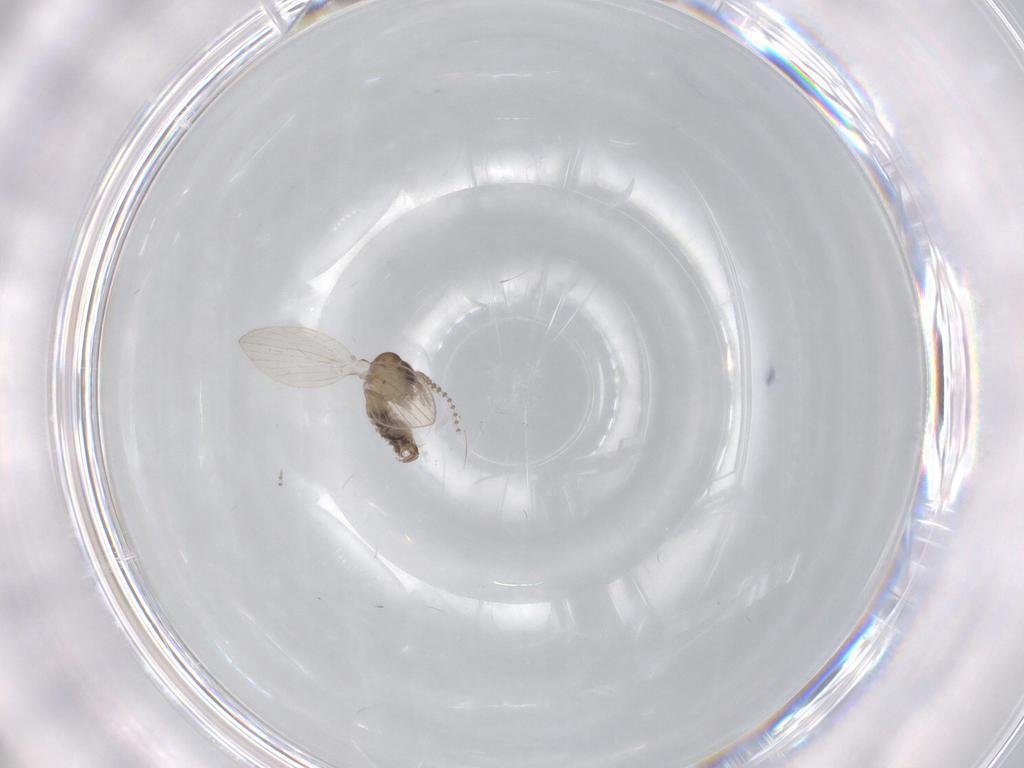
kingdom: Animalia
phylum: Arthropoda
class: Insecta
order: Diptera
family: Psychodidae
